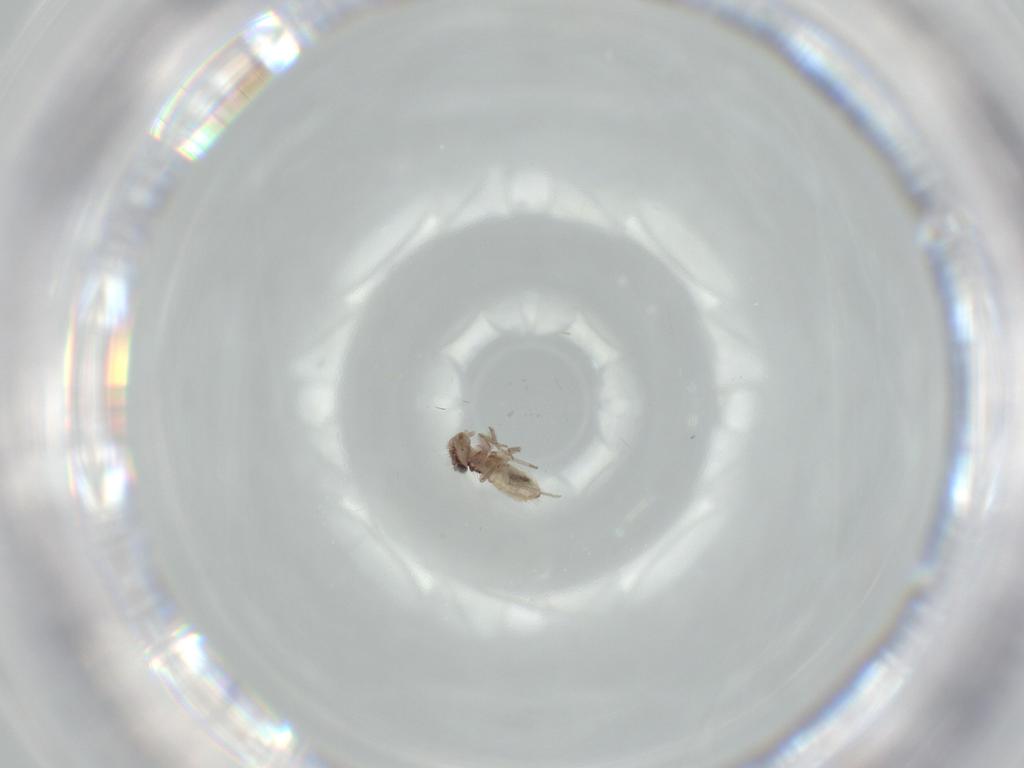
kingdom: Animalia
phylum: Arthropoda
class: Insecta
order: Psocodea
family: Lepidopsocidae
